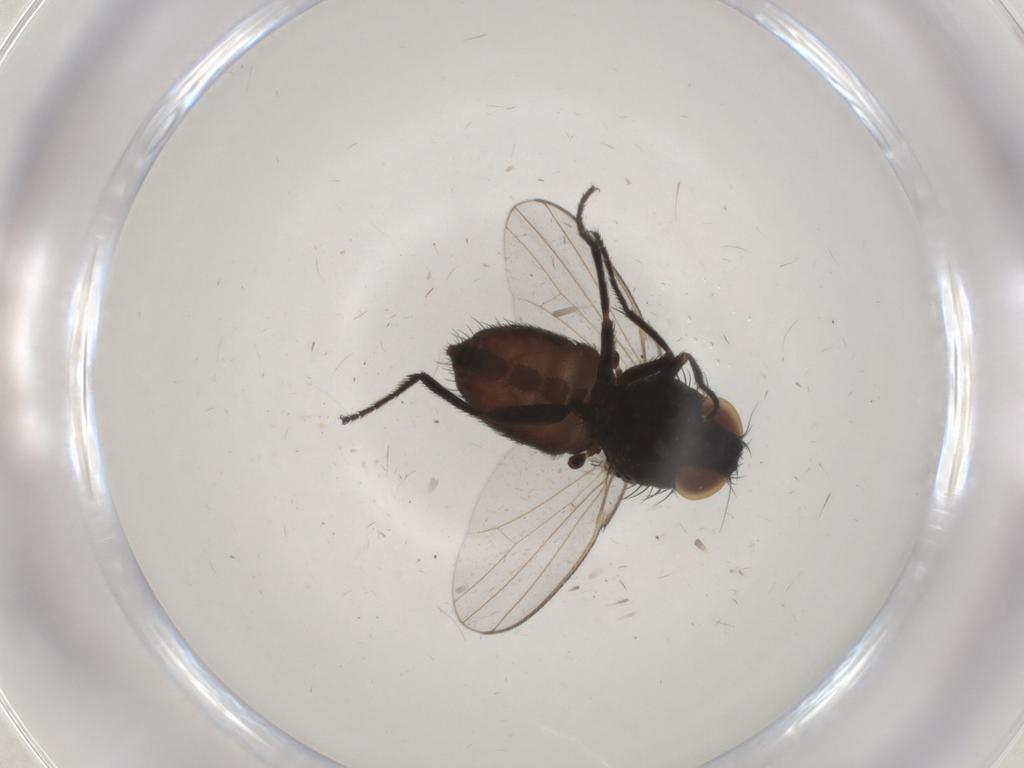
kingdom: Animalia
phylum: Arthropoda
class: Insecta
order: Diptera
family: Milichiidae
